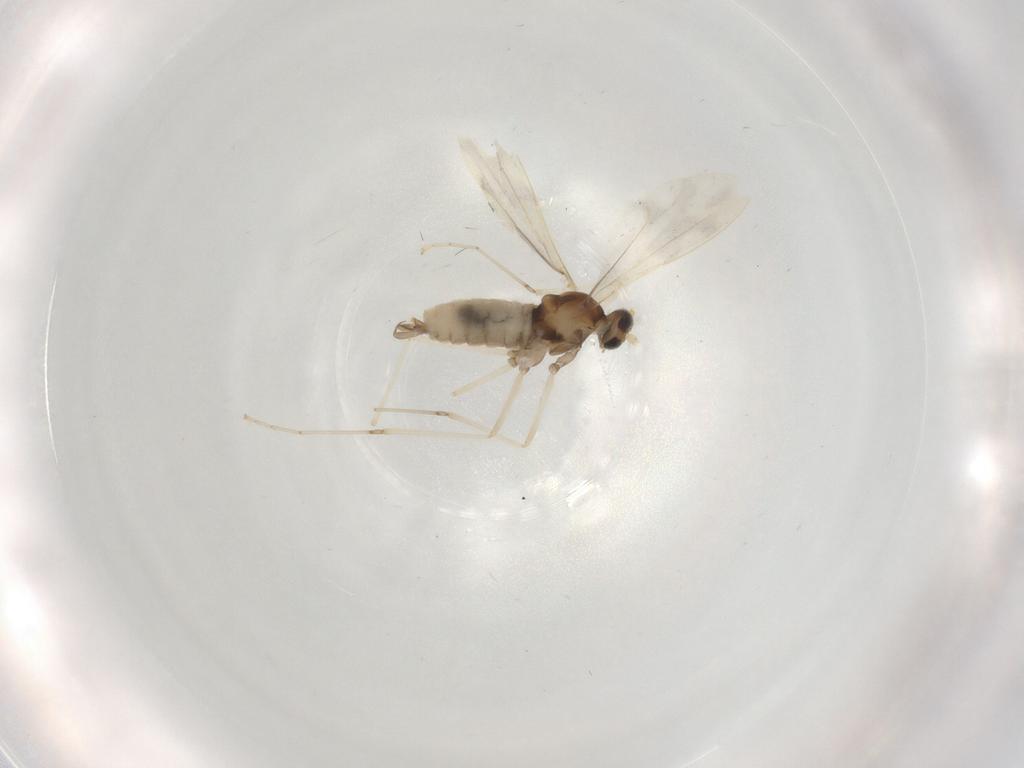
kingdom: Animalia
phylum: Arthropoda
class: Insecta
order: Diptera
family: Cecidomyiidae
